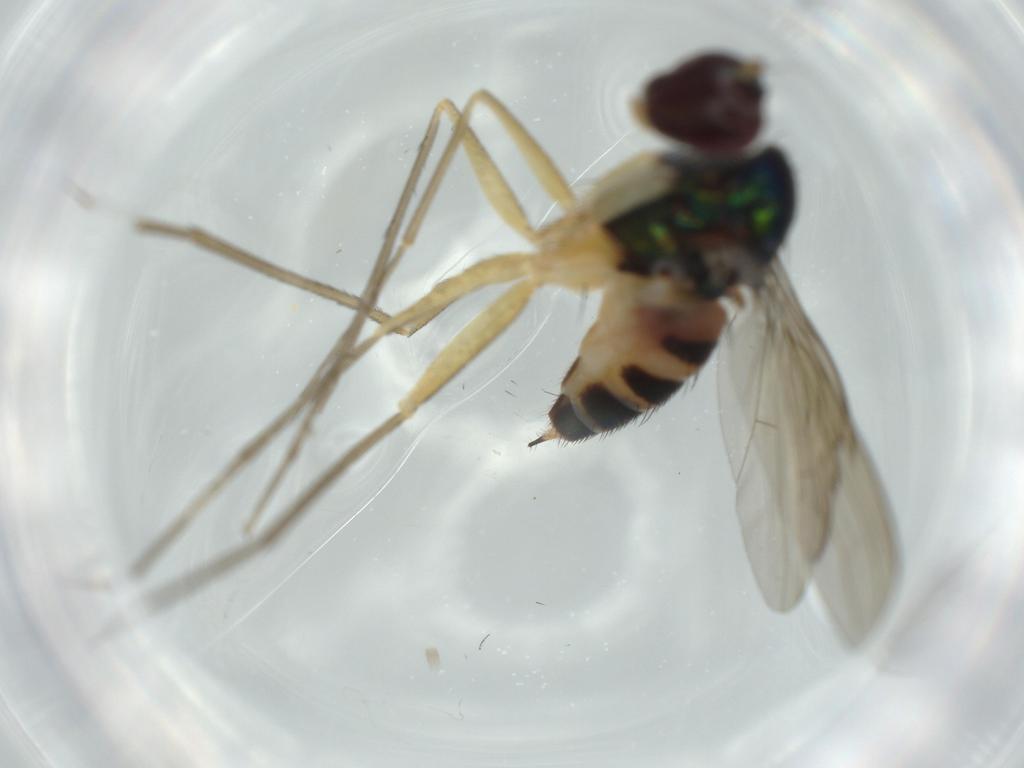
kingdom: Animalia
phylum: Arthropoda
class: Insecta
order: Diptera
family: Dolichopodidae
